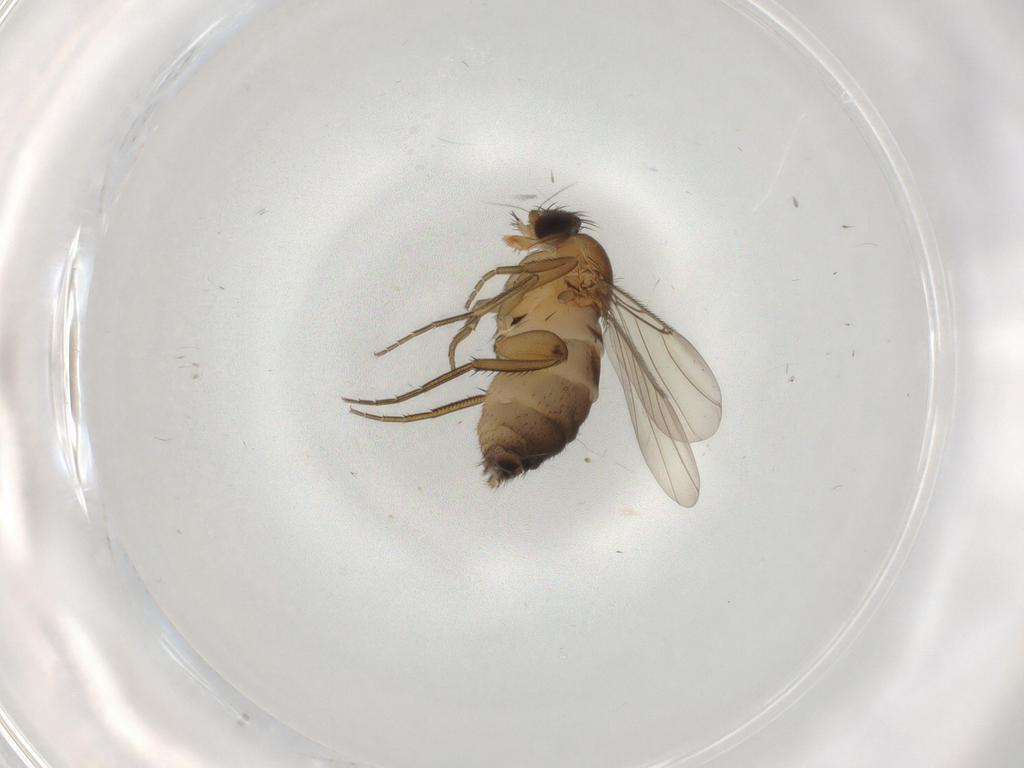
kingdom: Animalia
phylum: Arthropoda
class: Insecta
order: Diptera
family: Phoridae
